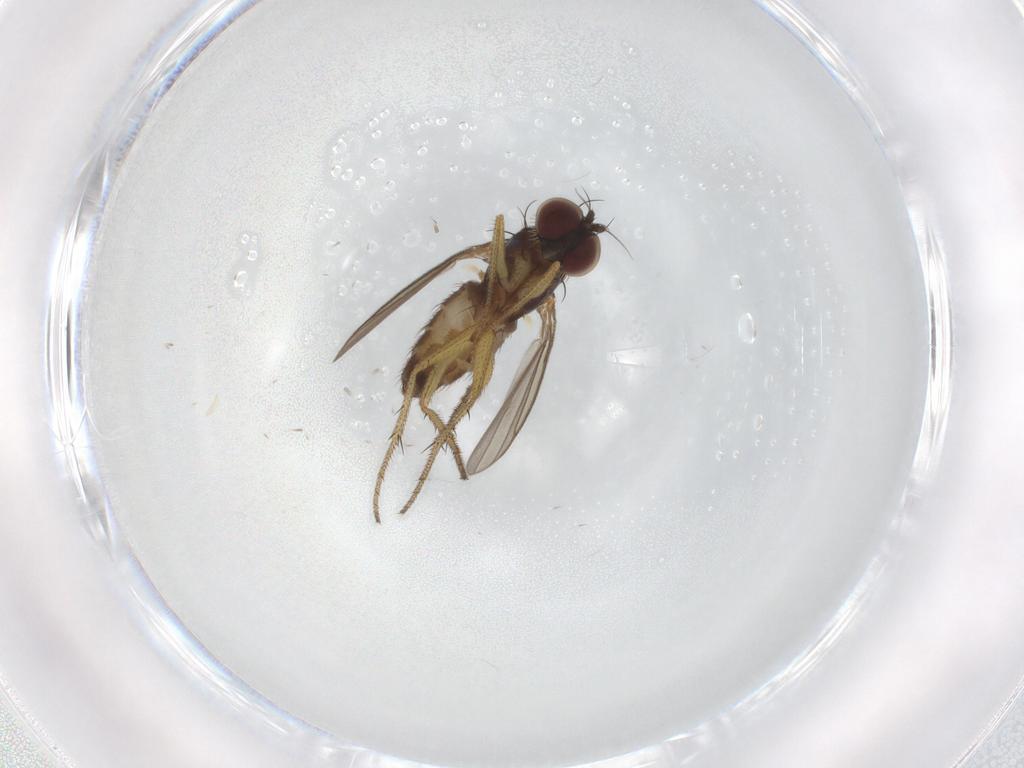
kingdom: Animalia
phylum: Arthropoda
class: Insecta
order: Diptera
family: Dolichopodidae
